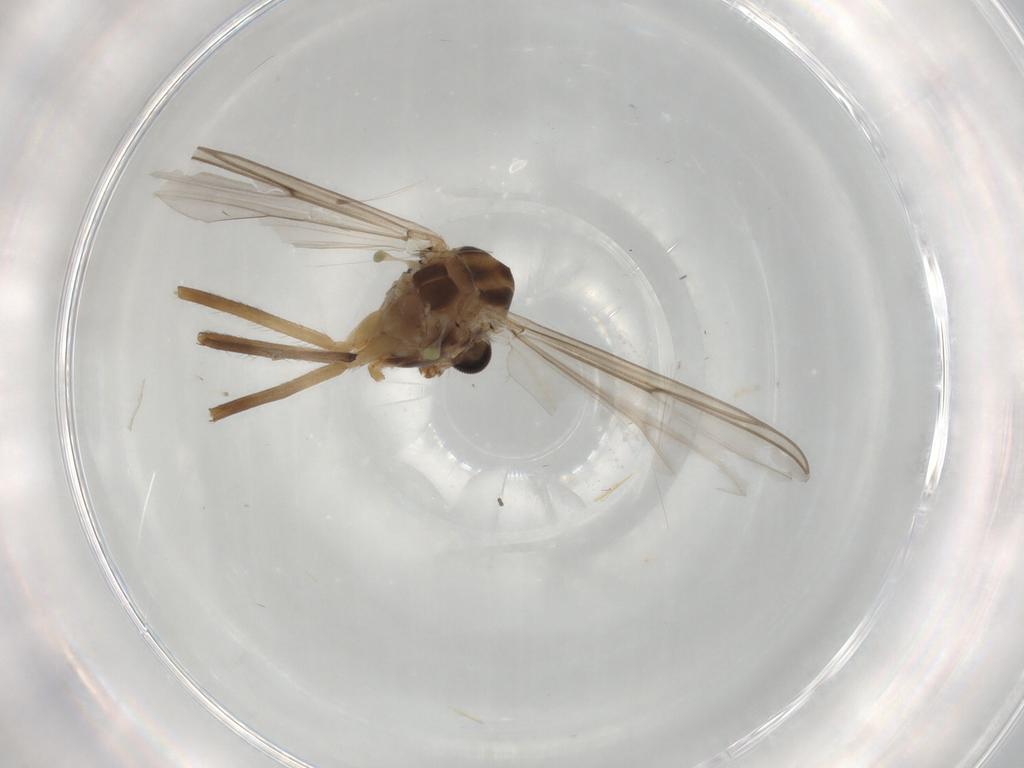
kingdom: Animalia
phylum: Arthropoda
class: Insecta
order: Diptera
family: Sciaridae
